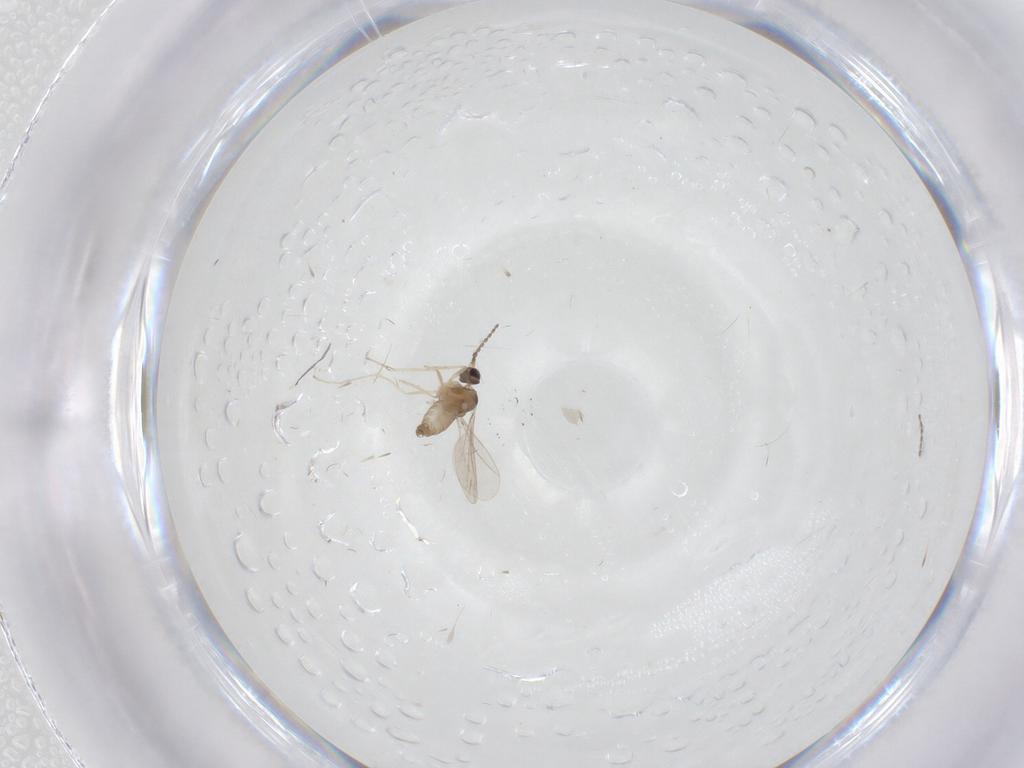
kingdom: Animalia
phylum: Arthropoda
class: Insecta
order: Diptera
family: Cecidomyiidae
